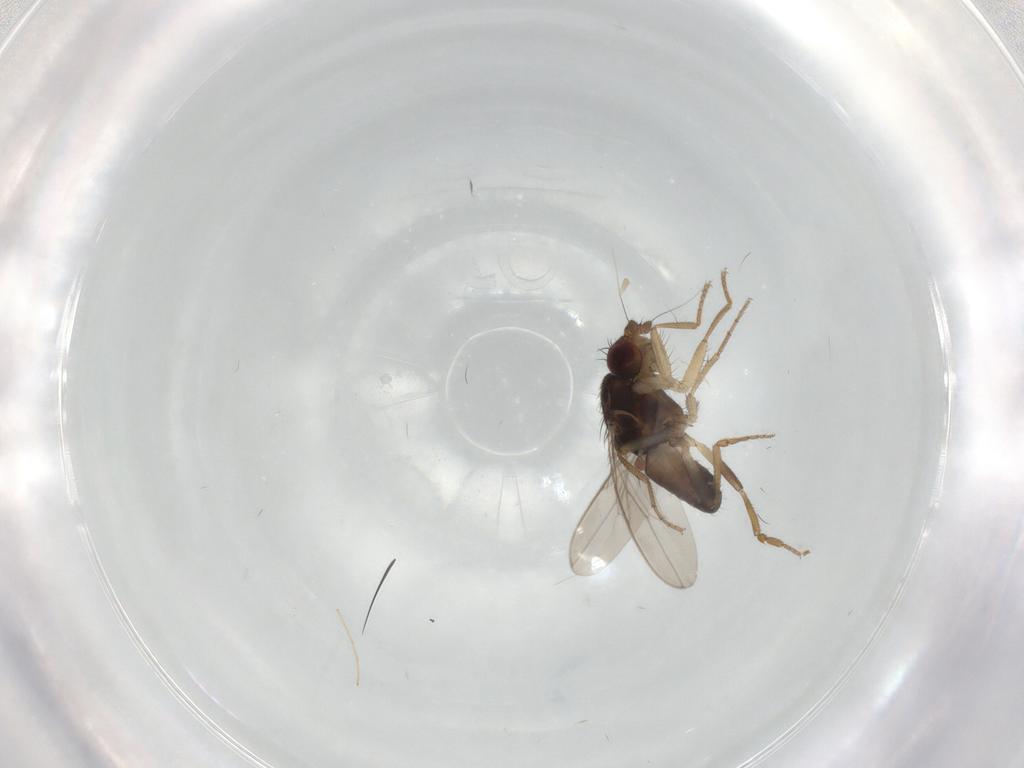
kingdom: Animalia
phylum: Arthropoda
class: Insecta
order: Diptera
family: Sphaeroceridae
